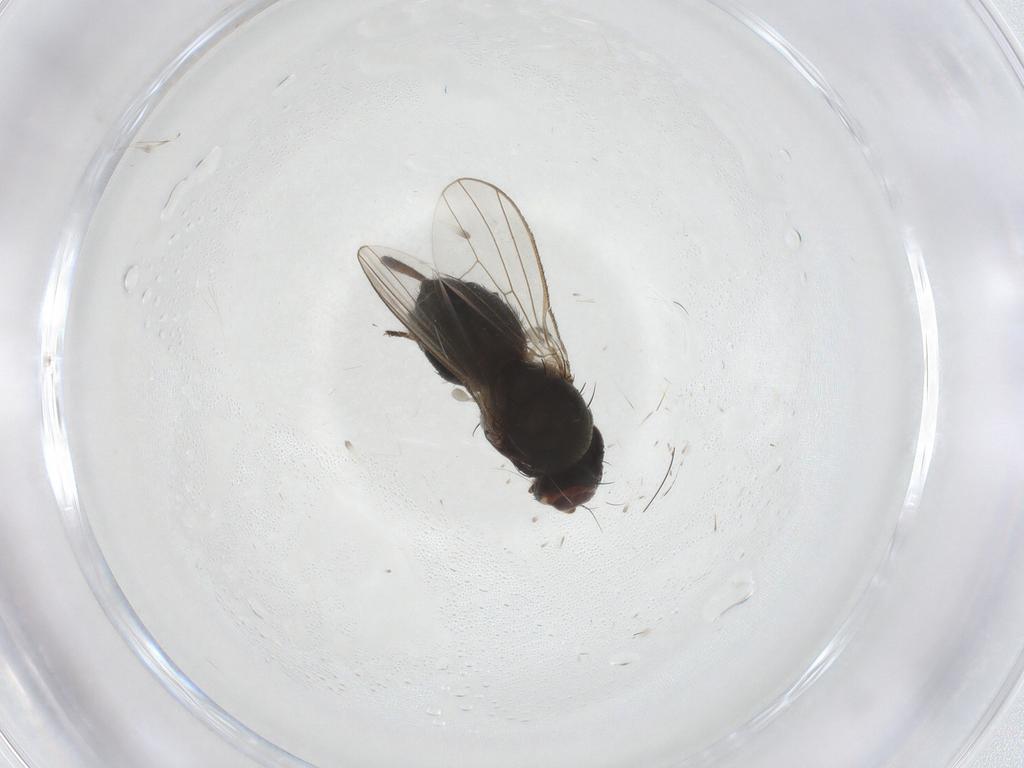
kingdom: Animalia
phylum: Arthropoda
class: Insecta
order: Diptera
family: Heleomyzidae
